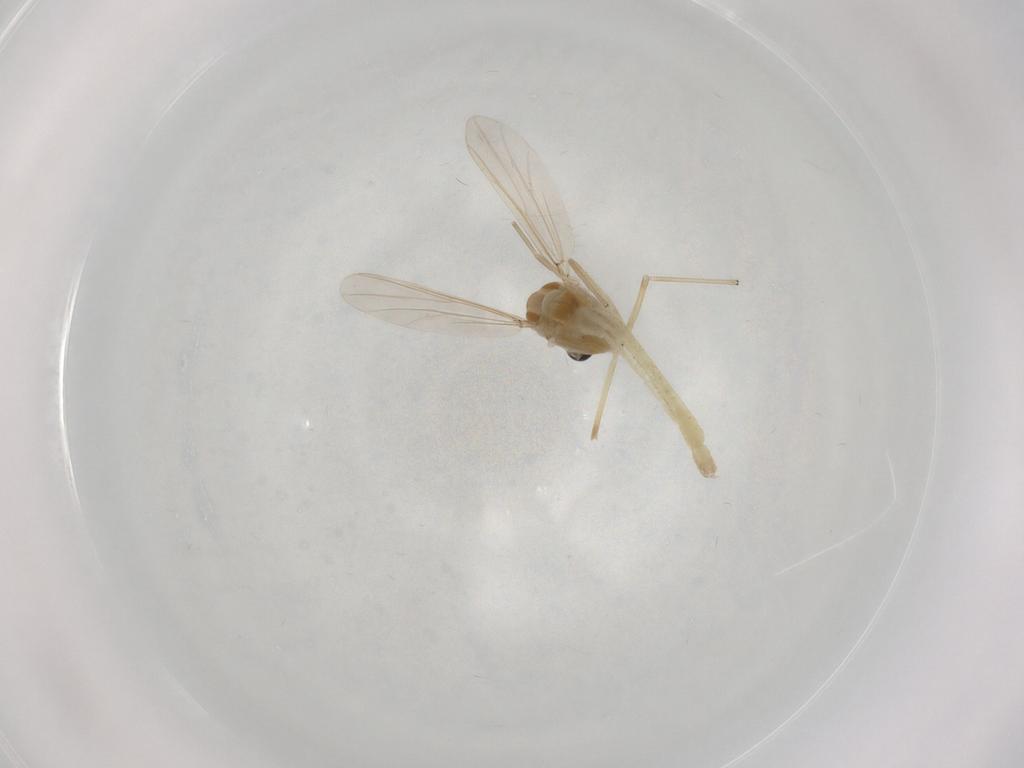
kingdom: Animalia
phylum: Arthropoda
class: Insecta
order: Diptera
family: Chironomidae
